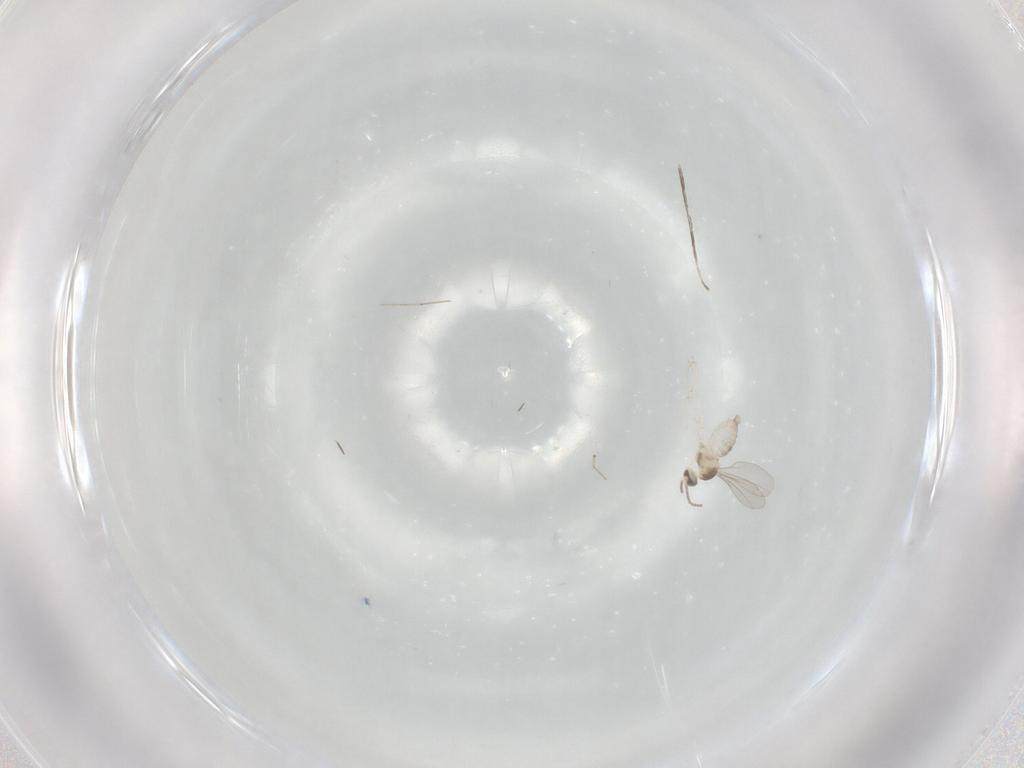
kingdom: Animalia
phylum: Arthropoda
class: Insecta
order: Diptera
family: Cecidomyiidae
